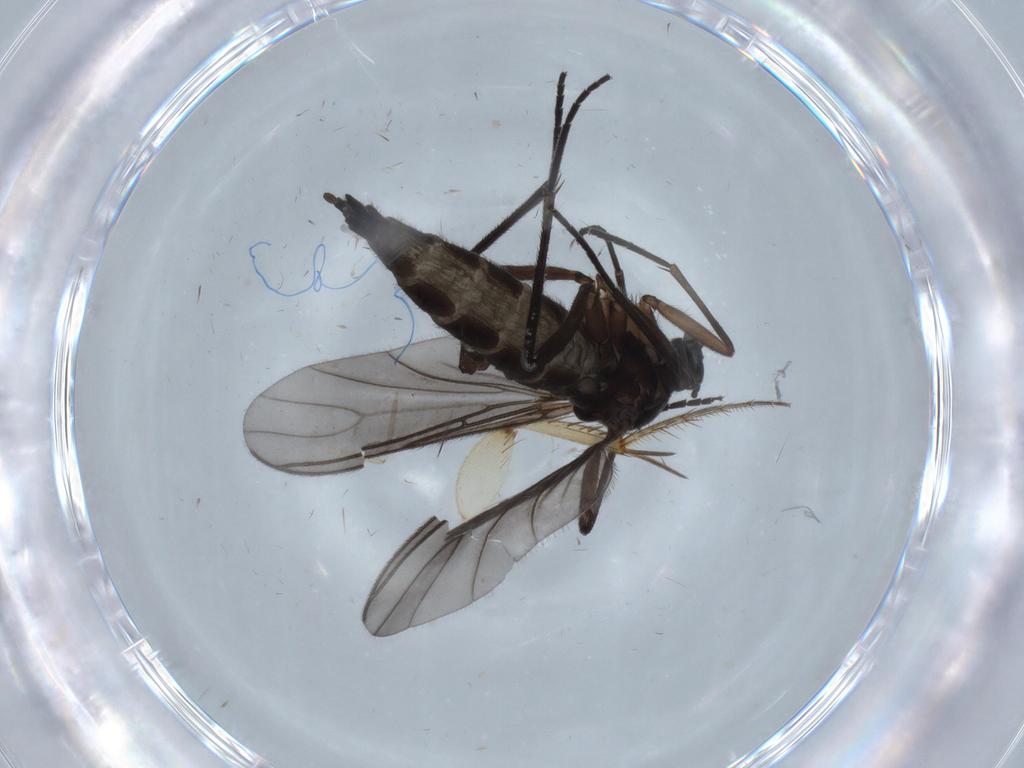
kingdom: Animalia
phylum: Arthropoda
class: Insecta
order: Diptera
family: Sciaridae
